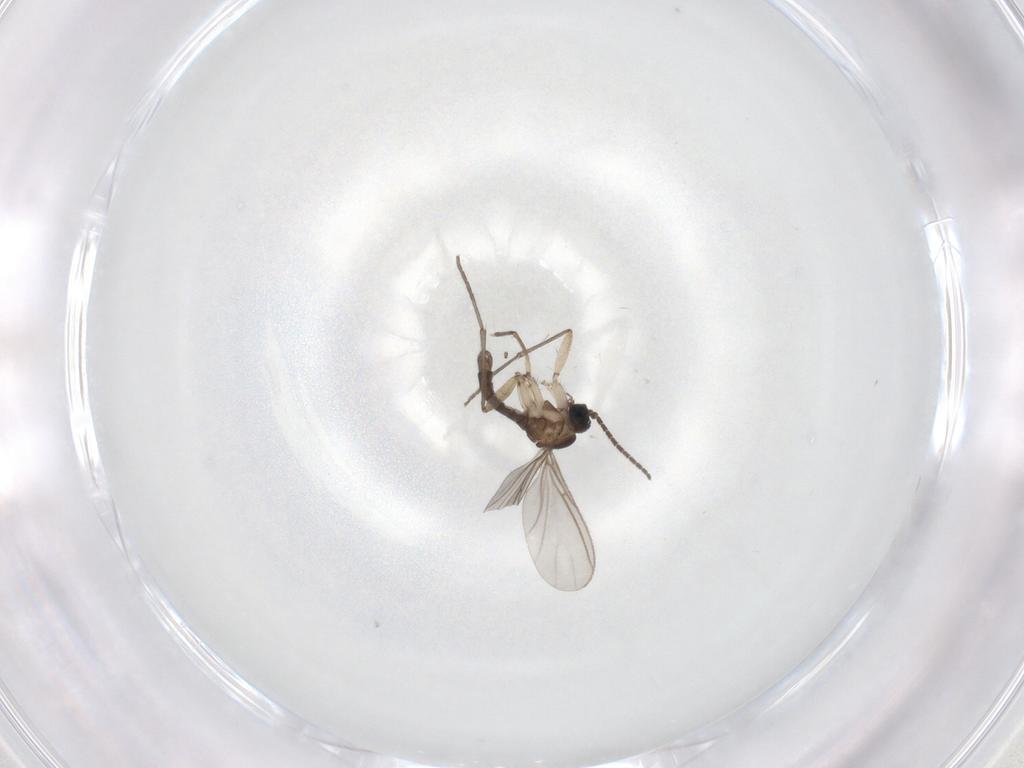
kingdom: Animalia
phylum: Arthropoda
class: Insecta
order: Diptera
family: Sciaridae
